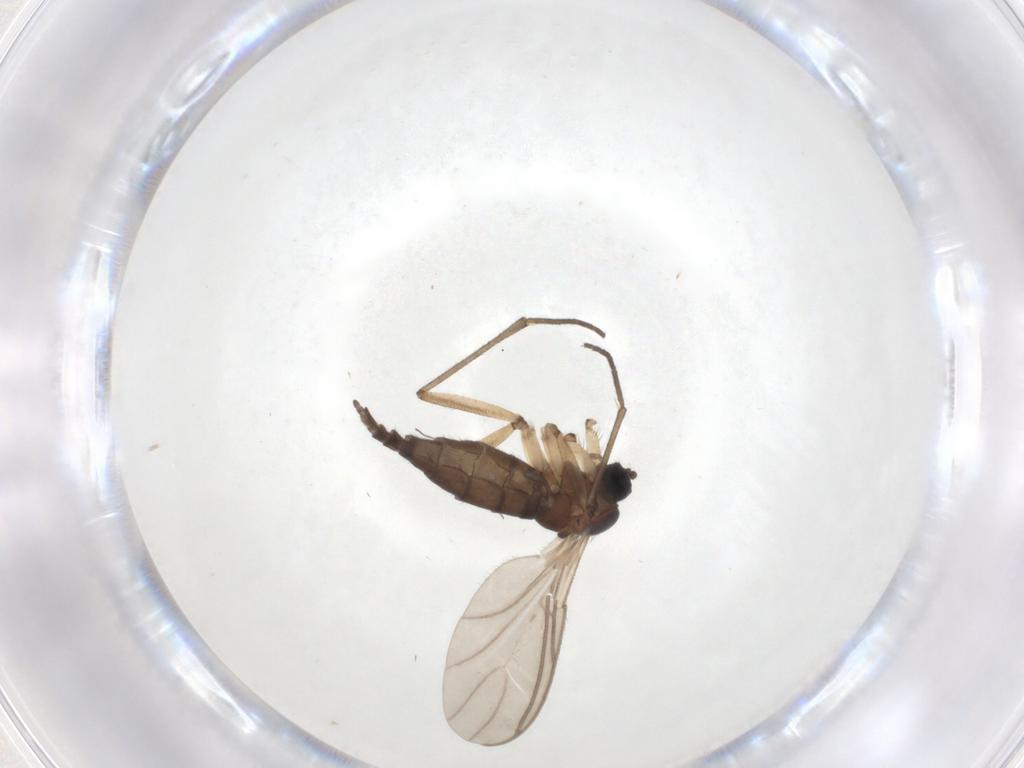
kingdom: Animalia
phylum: Arthropoda
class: Insecta
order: Diptera
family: Sciaridae
